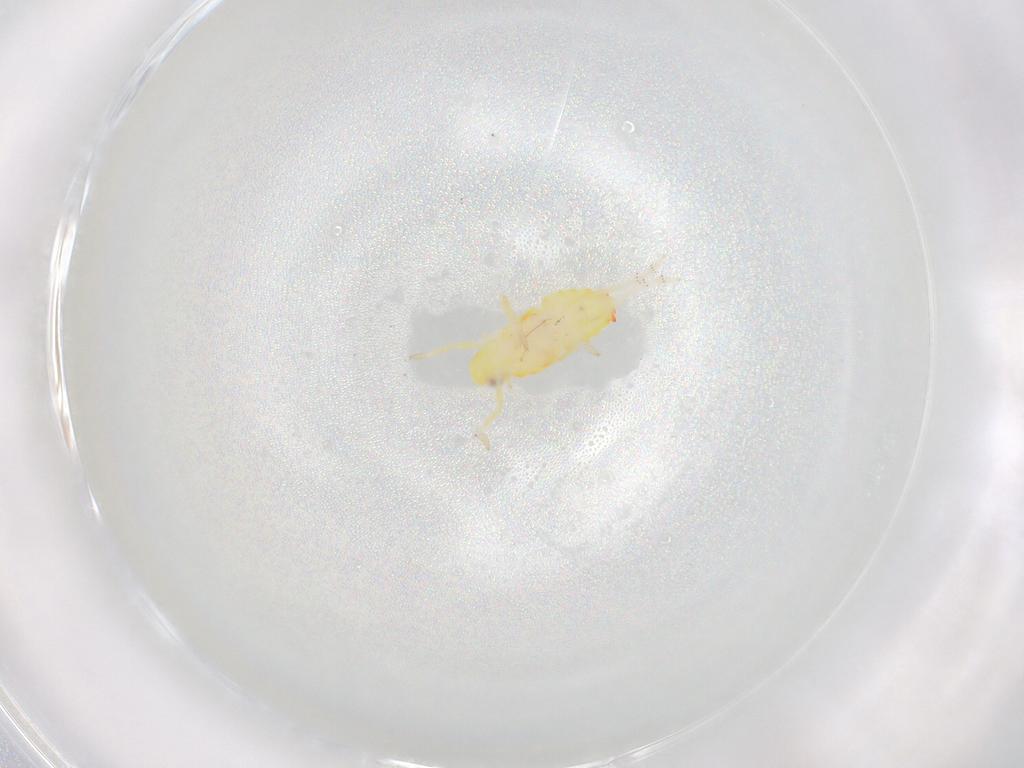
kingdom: Animalia
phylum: Arthropoda
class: Insecta
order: Hemiptera
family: Tropiduchidae
